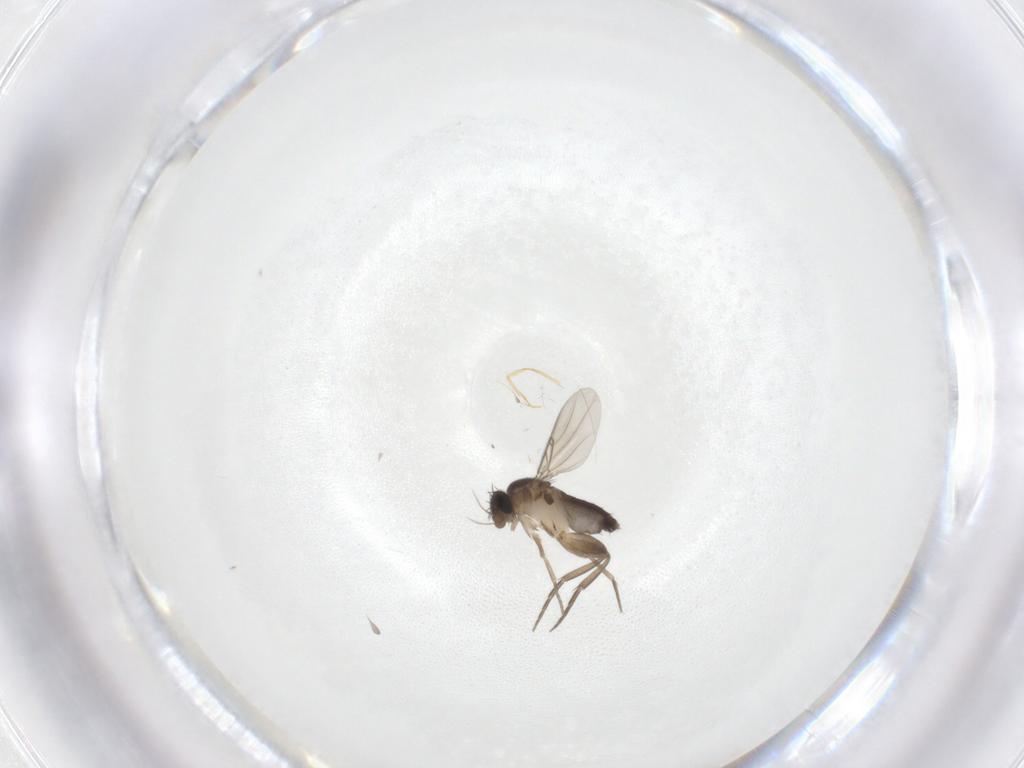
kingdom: Animalia
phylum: Arthropoda
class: Insecta
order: Diptera
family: Phoridae
